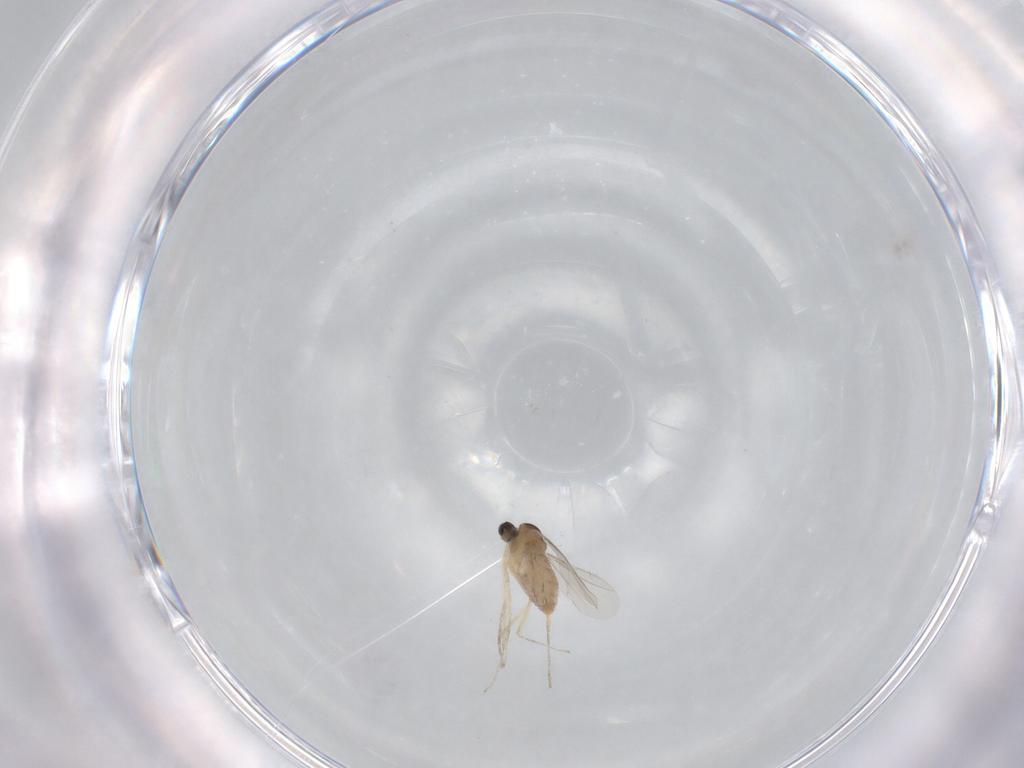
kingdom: Animalia
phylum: Arthropoda
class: Insecta
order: Diptera
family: Cecidomyiidae
